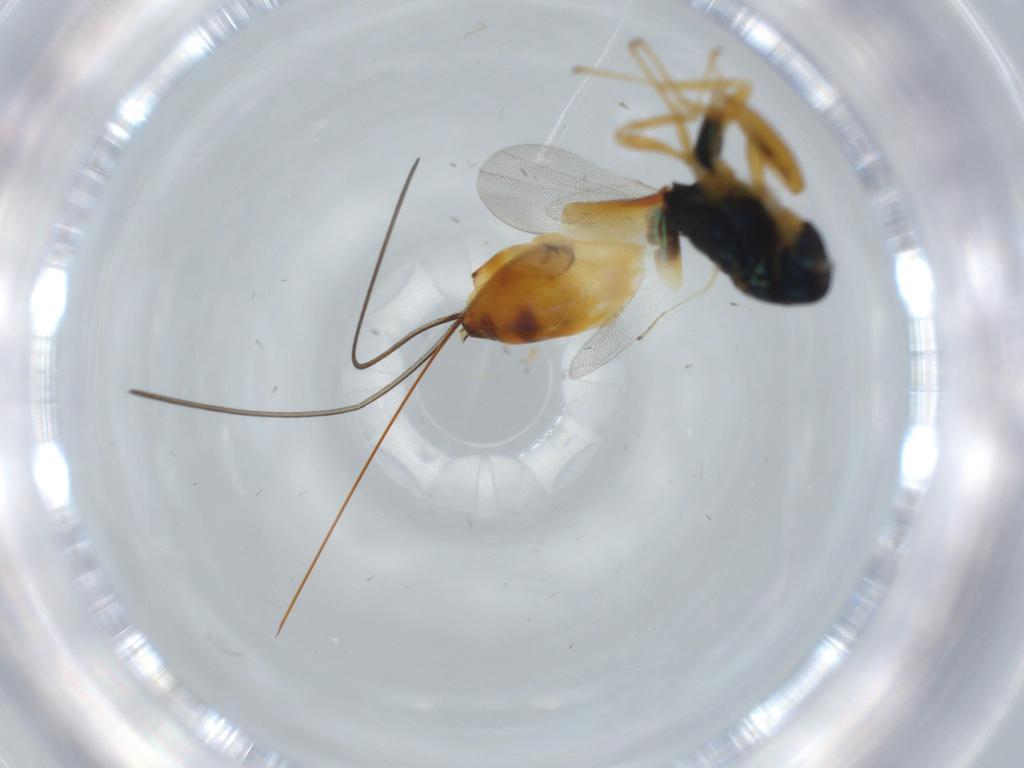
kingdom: Animalia
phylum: Arthropoda
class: Insecta
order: Hymenoptera
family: Torymidae
